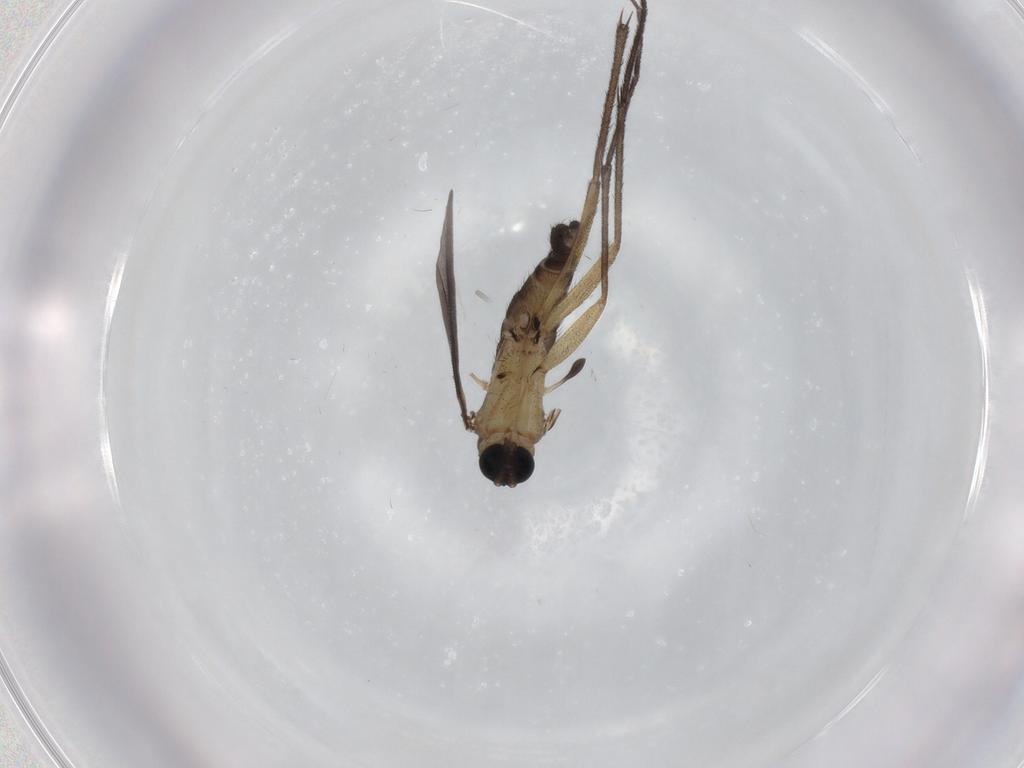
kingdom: Animalia
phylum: Arthropoda
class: Insecta
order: Diptera
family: Sciaridae
